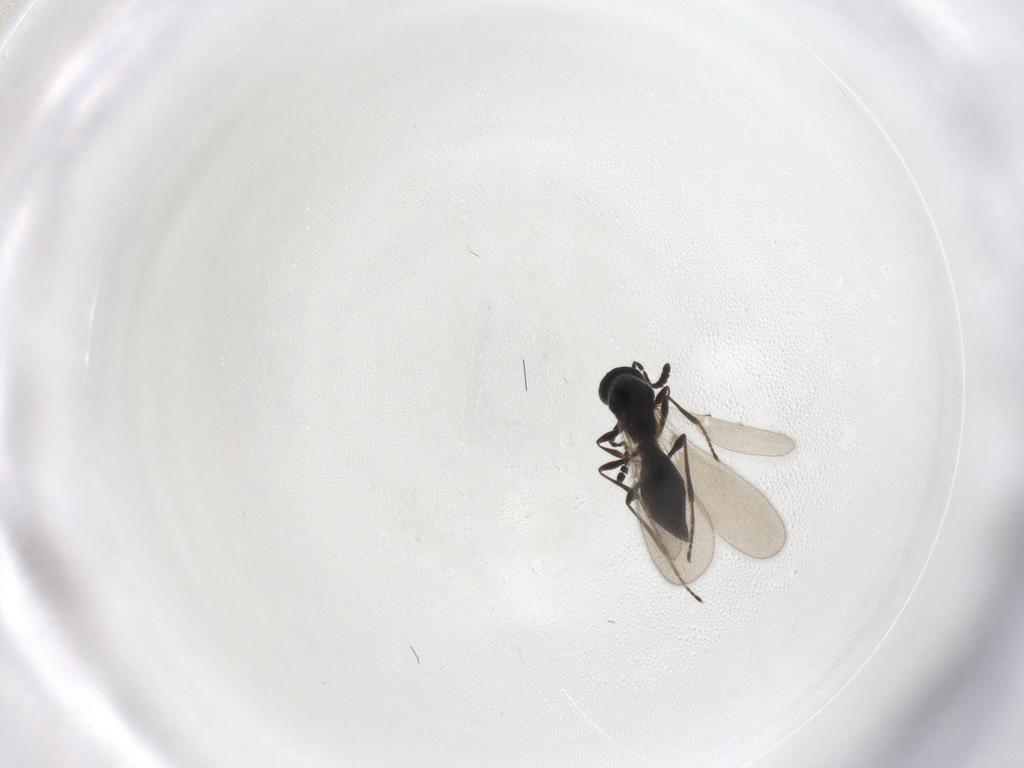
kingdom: Animalia
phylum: Arthropoda
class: Insecta
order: Hymenoptera
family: Platygastridae
